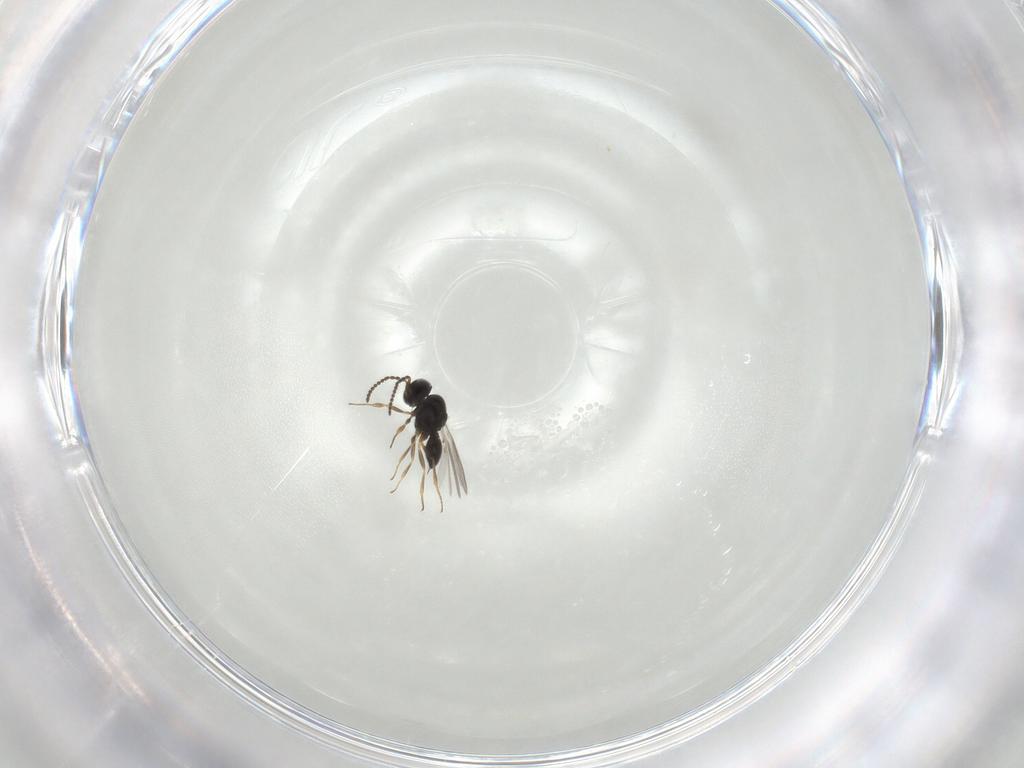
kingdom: Animalia
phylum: Arthropoda
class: Insecta
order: Hymenoptera
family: Scelionidae
